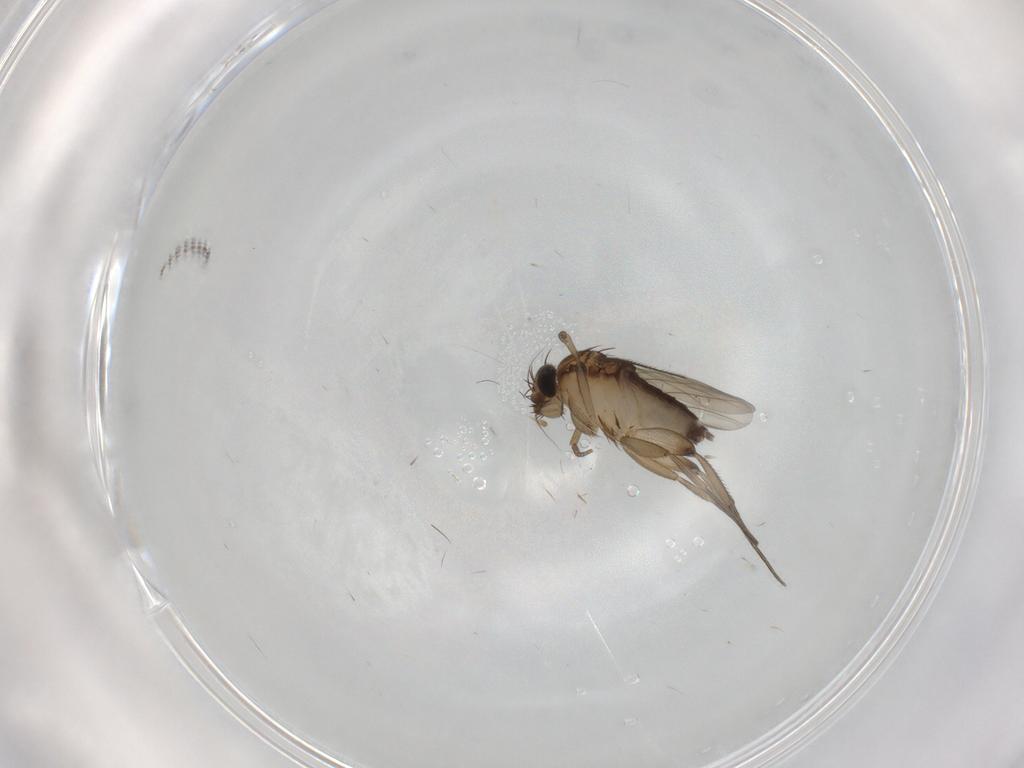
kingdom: Animalia
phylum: Arthropoda
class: Insecta
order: Diptera
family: Phoridae
